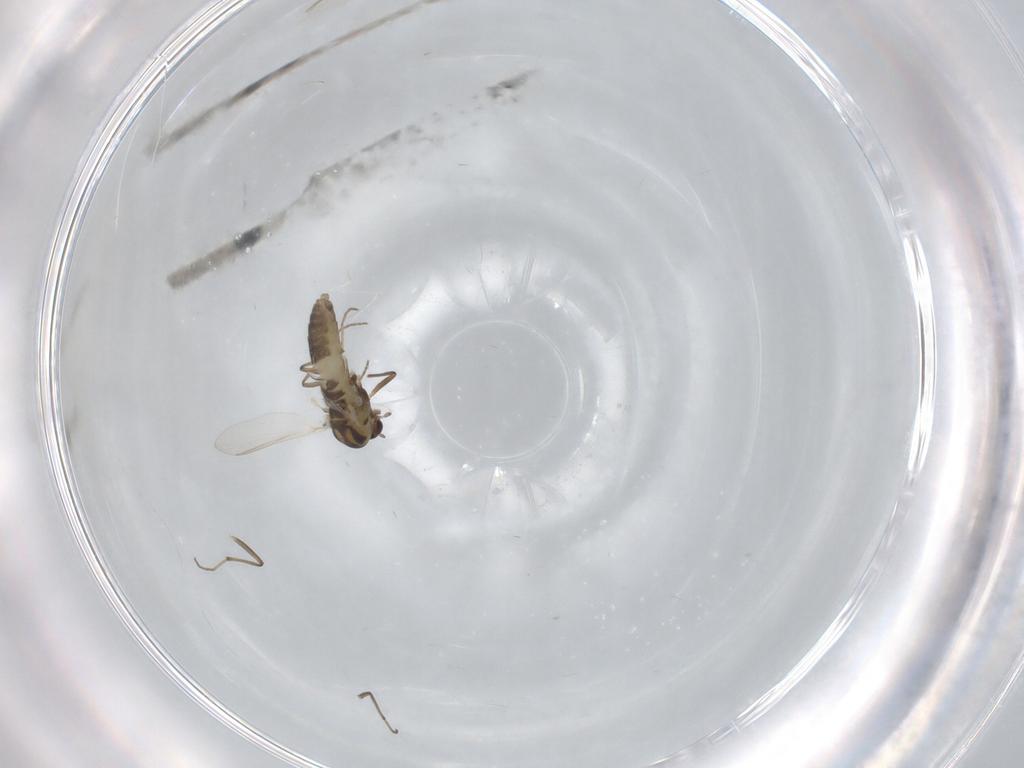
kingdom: Animalia
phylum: Arthropoda
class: Insecta
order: Diptera
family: Chironomidae
